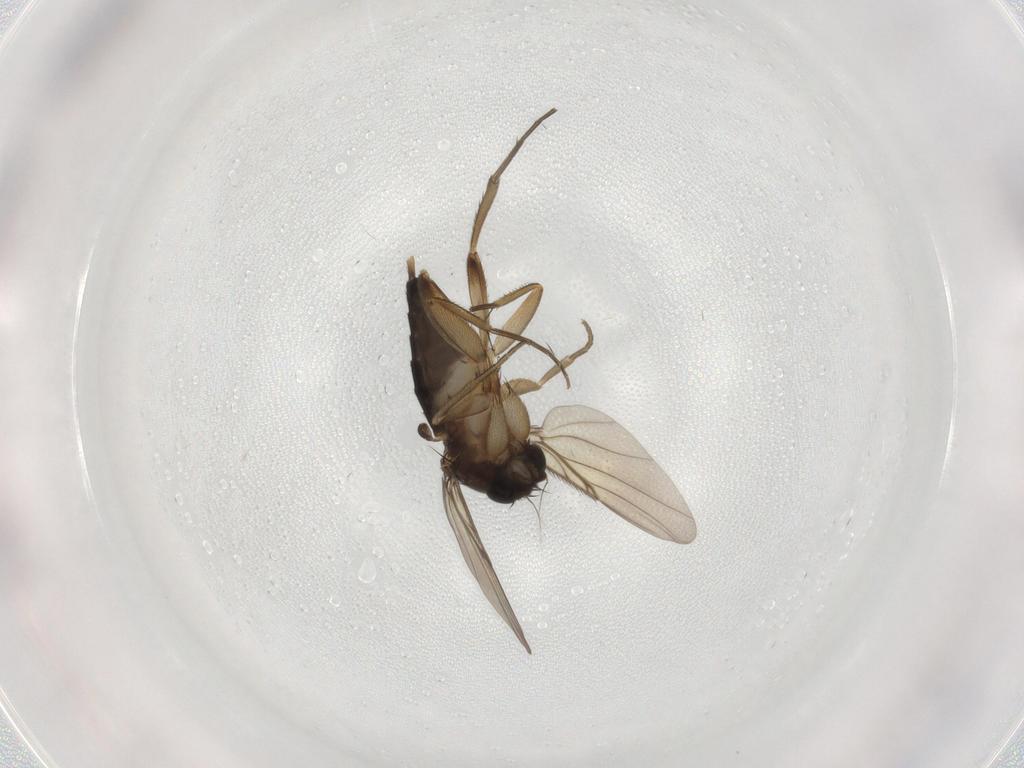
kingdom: Animalia
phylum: Arthropoda
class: Insecta
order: Diptera
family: Phoridae
